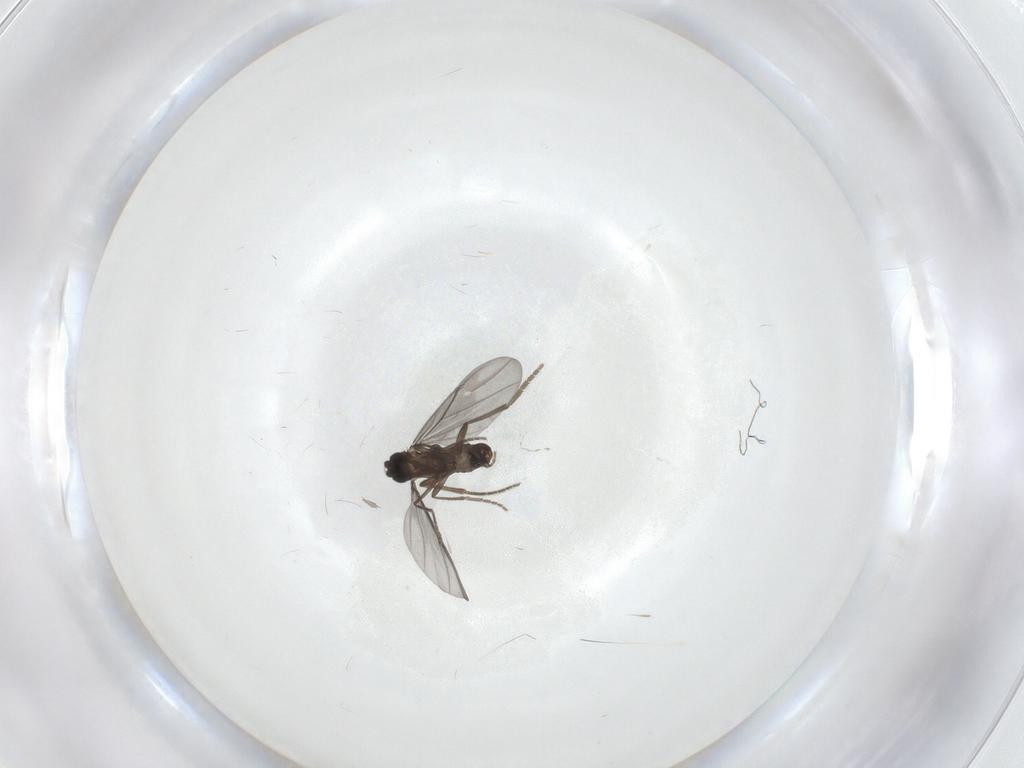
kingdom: Animalia
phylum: Arthropoda
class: Insecta
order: Diptera
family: Phoridae
